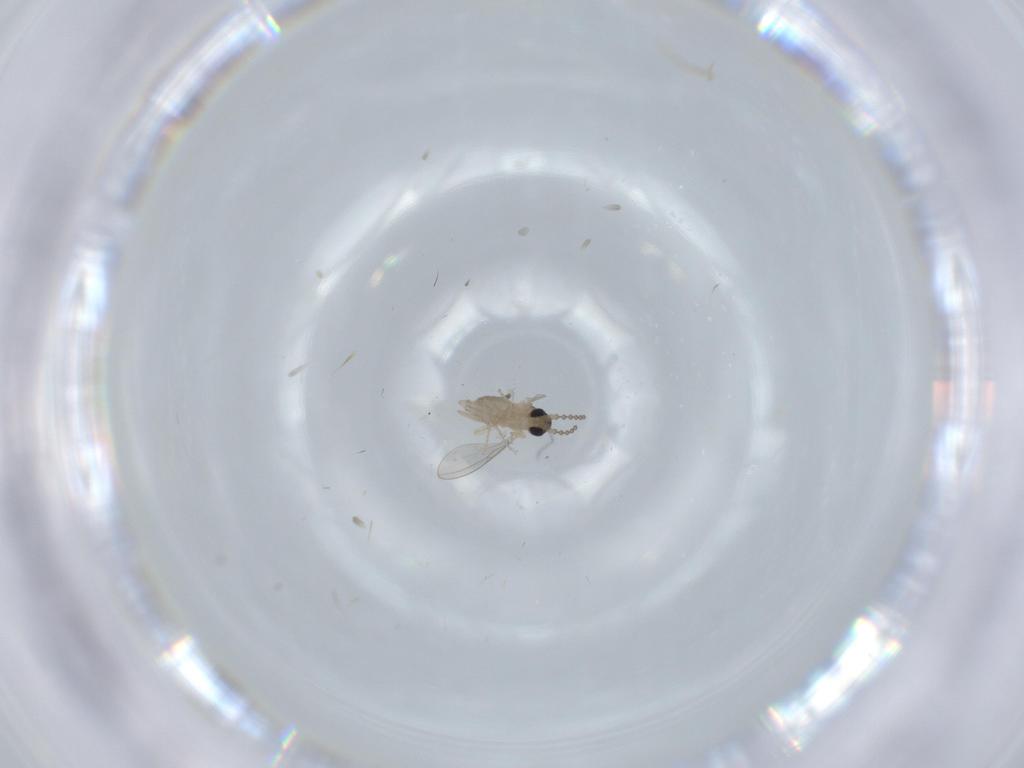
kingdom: Animalia
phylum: Arthropoda
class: Insecta
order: Diptera
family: Cecidomyiidae
